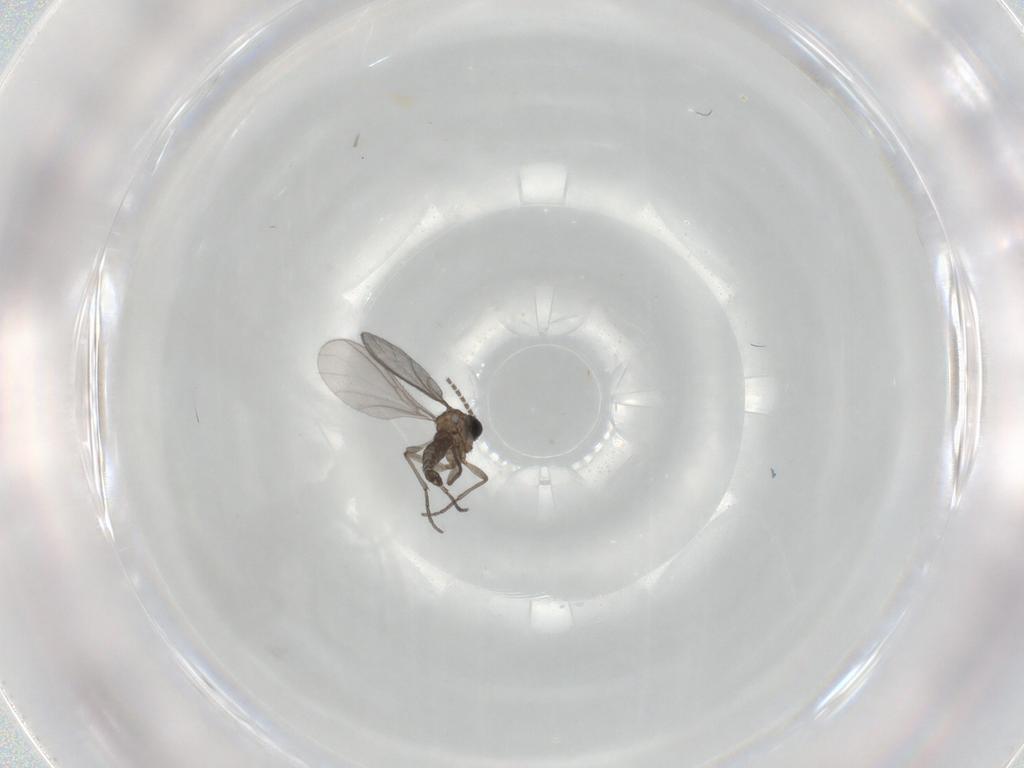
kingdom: Animalia
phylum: Arthropoda
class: Insecta
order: Diptera
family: Sciaridae
